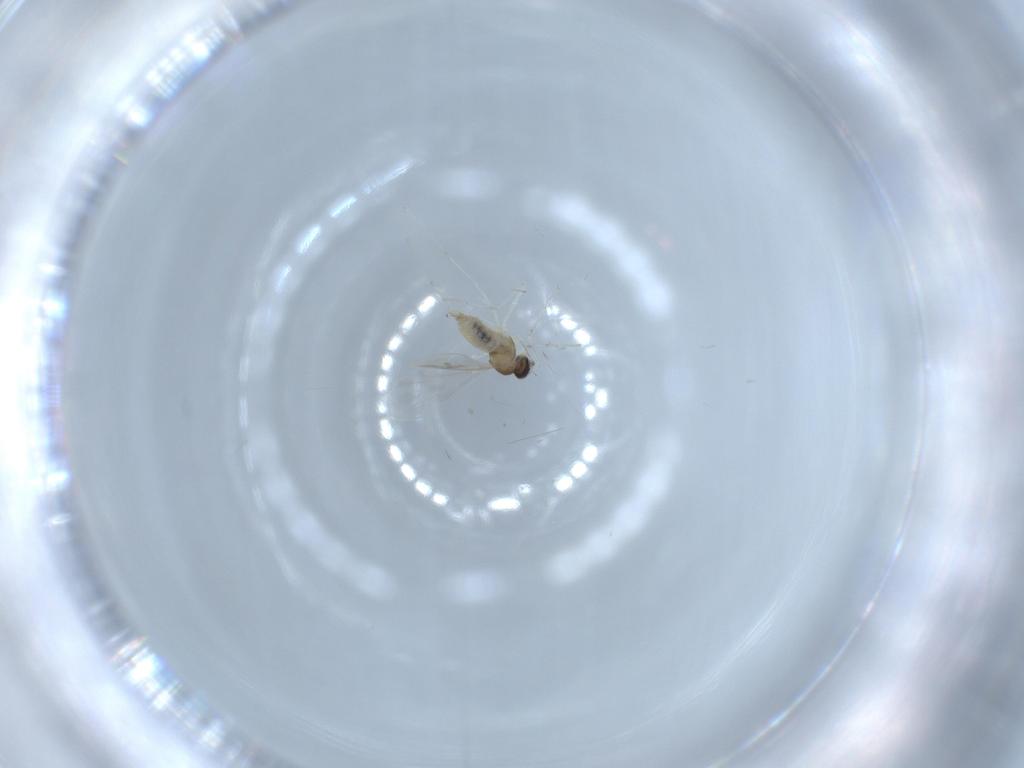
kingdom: Animalia
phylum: Arthropoda
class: Insecta
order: Diptera
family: Cecidomyiidae
